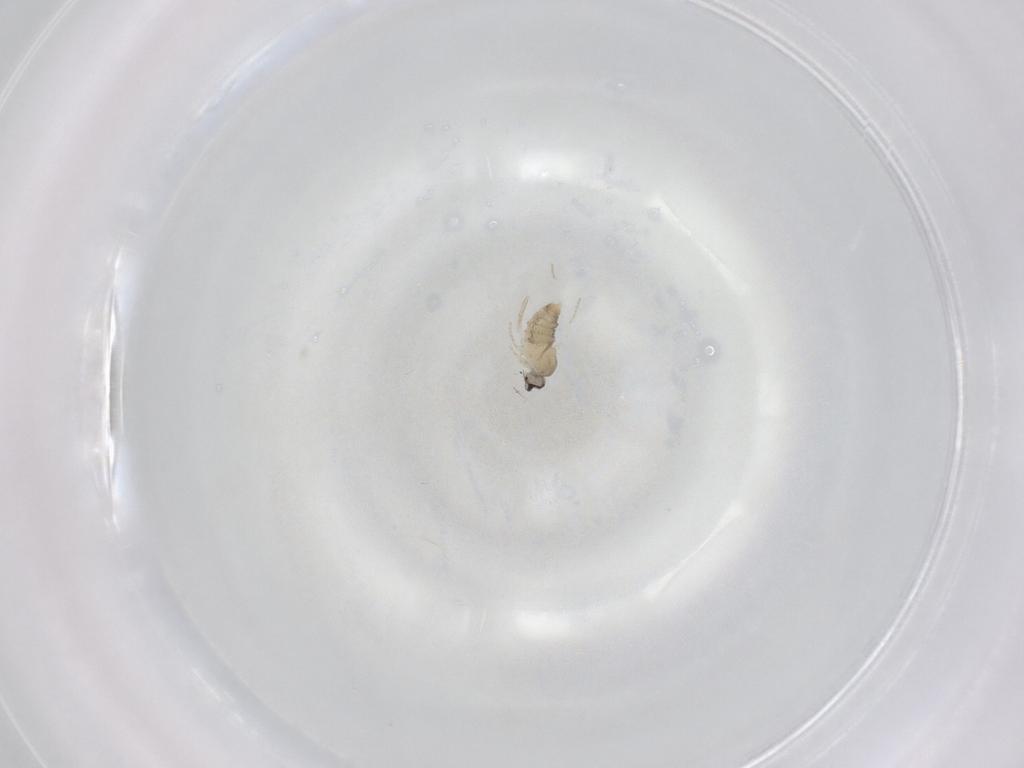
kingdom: Animalia
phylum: Arthropoda
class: Insecta
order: Diptera
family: Cecidomyiidae
